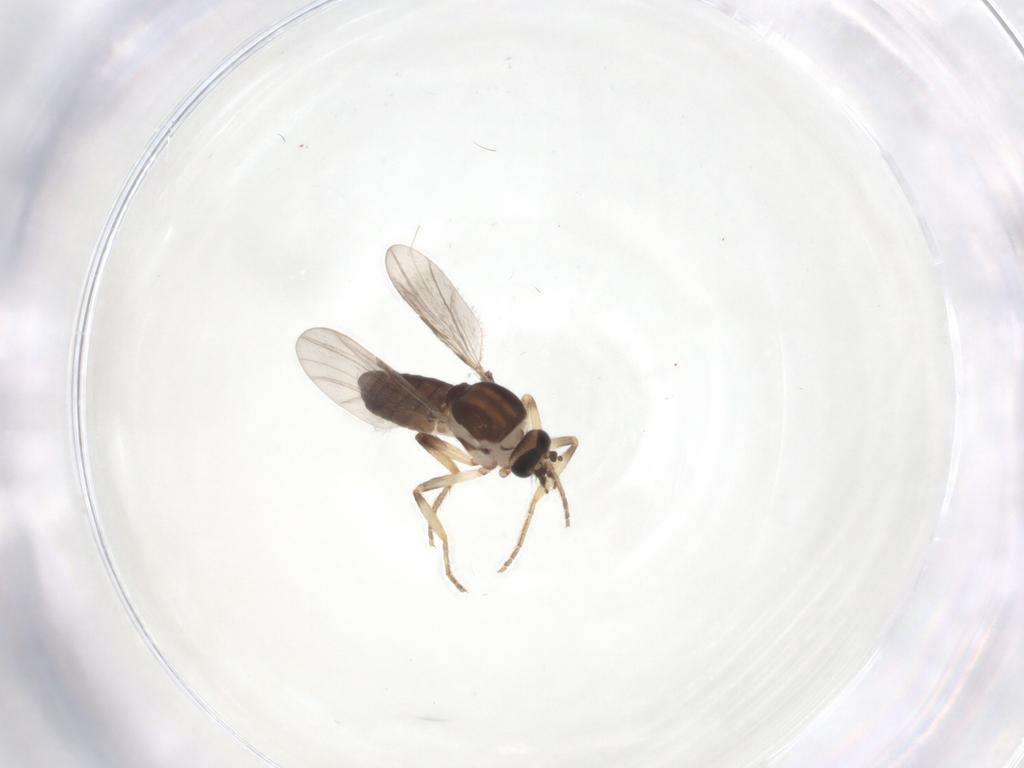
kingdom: Animalia
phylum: Arthropoda
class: Insecta
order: Diptera
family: Ceratopogonidae
